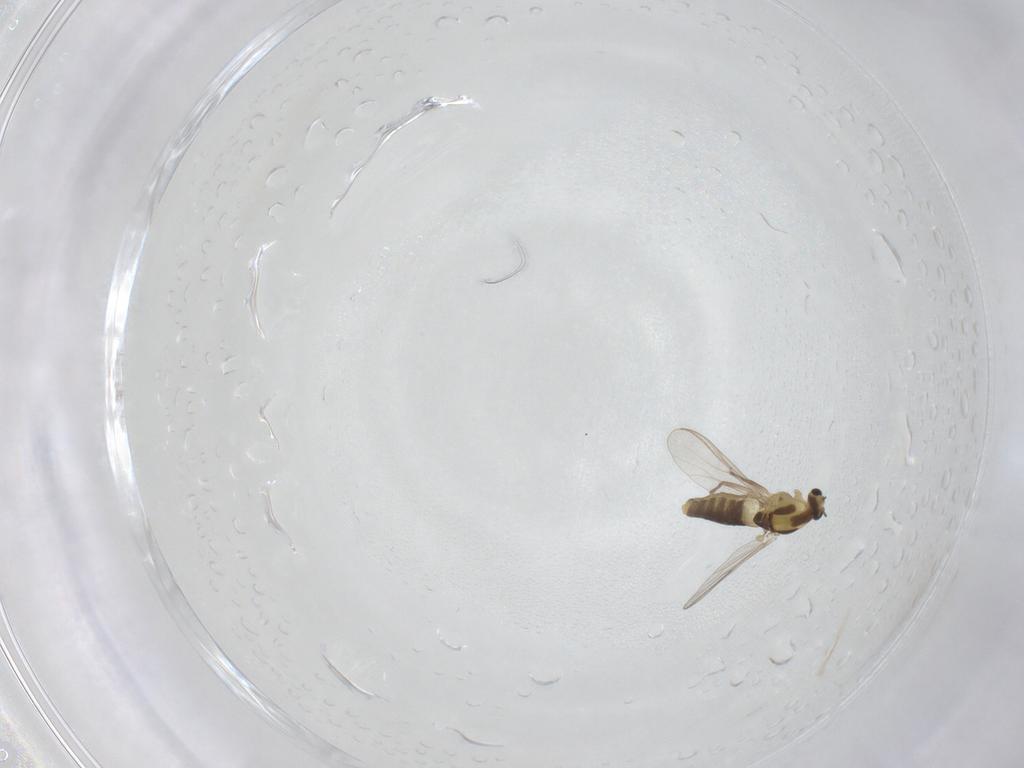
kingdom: Animalia
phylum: Arthropoda
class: Insecta
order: Diptera
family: Chironomidae
